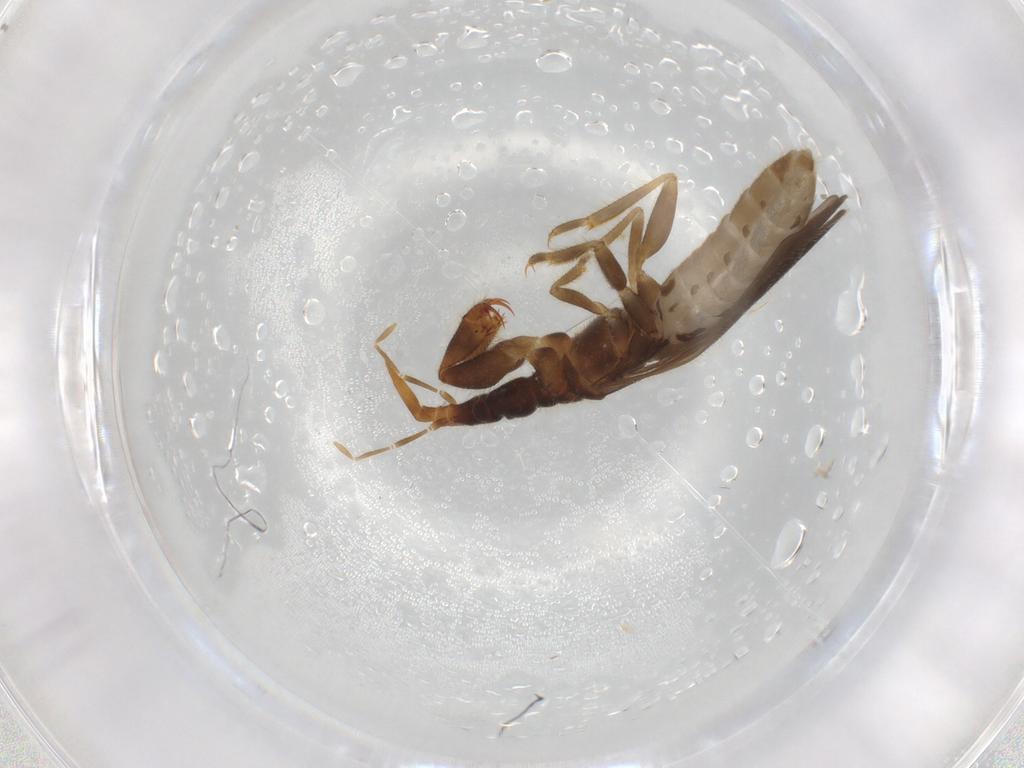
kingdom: Animalia
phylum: Arthropoda
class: Insecta
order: Hemiptera
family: Enicocephalidae
